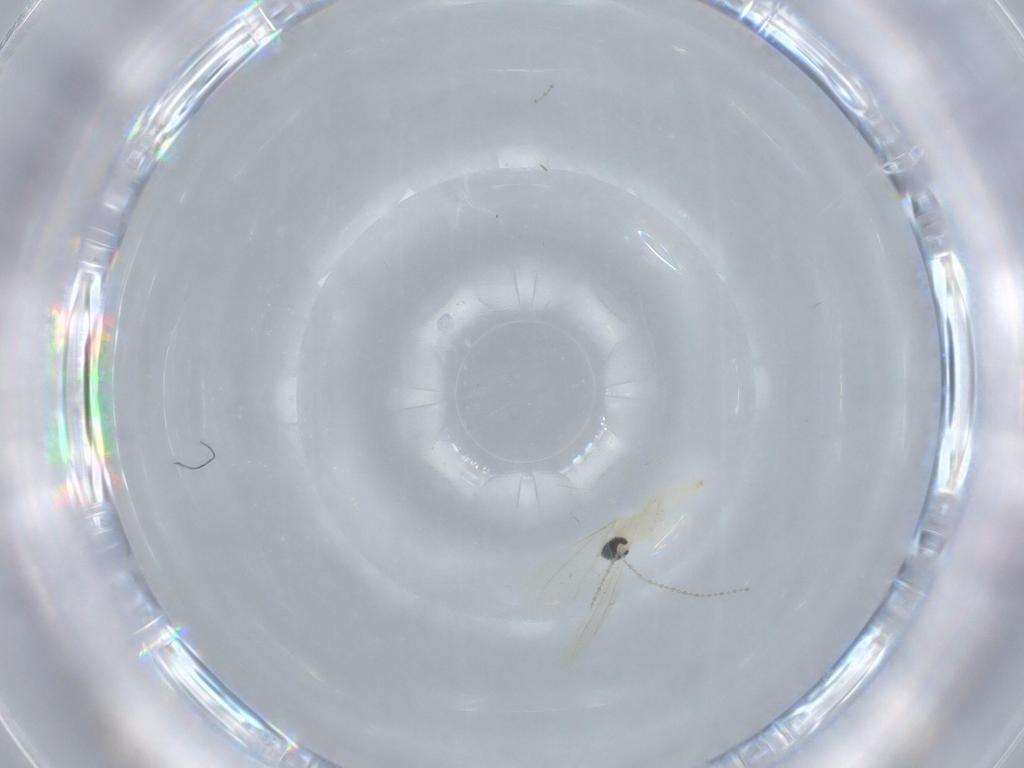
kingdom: Animalia
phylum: Arthropoda
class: Insecta
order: Diptera
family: Cecidomyiidae
